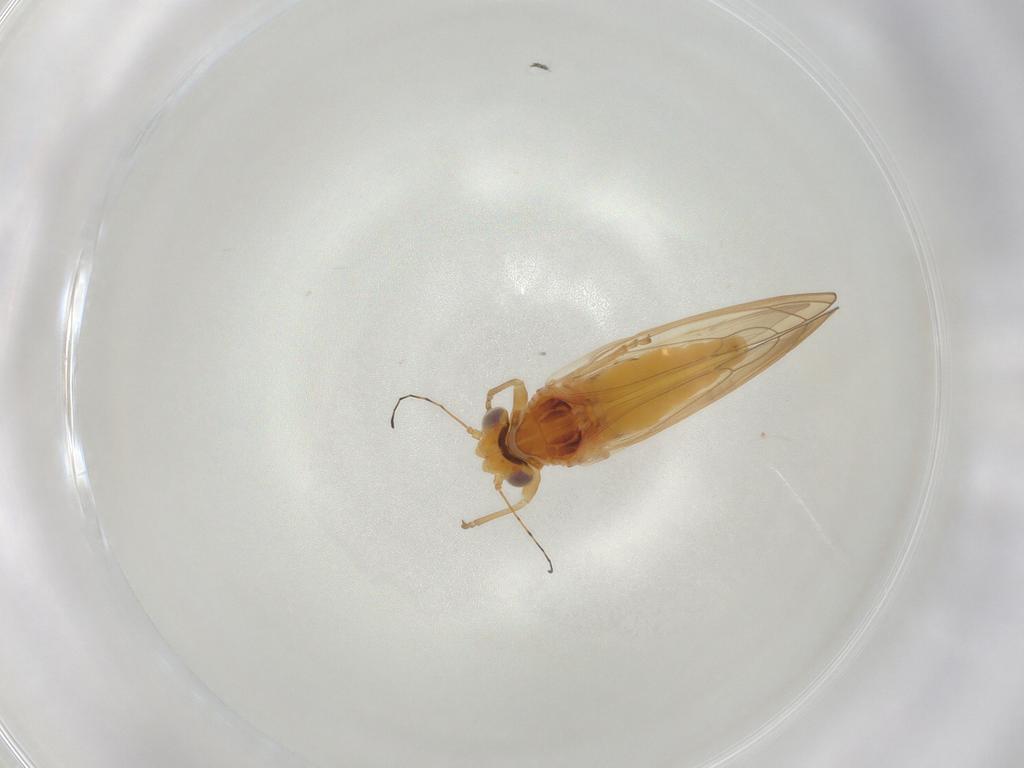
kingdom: Animalia
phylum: Arthropoda
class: Insecta
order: Hemiptera
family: Psylloidea_incertae_sedis
